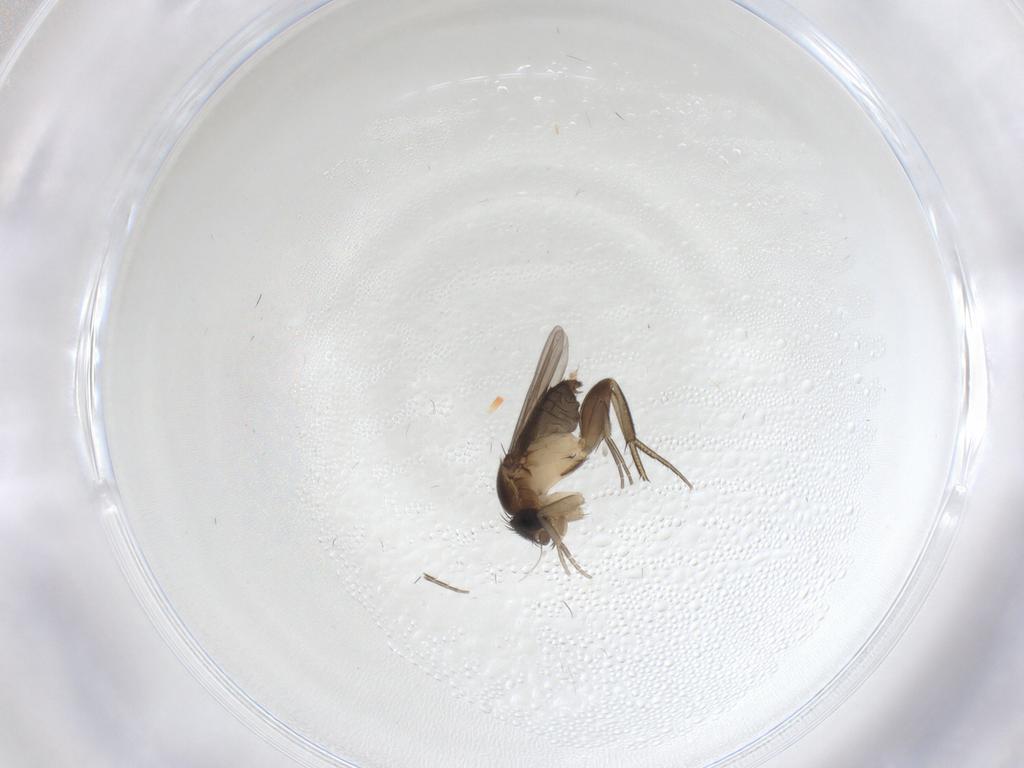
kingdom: Animalia
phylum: Arthropoda
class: Insecta
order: Diptera
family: Phoridae
